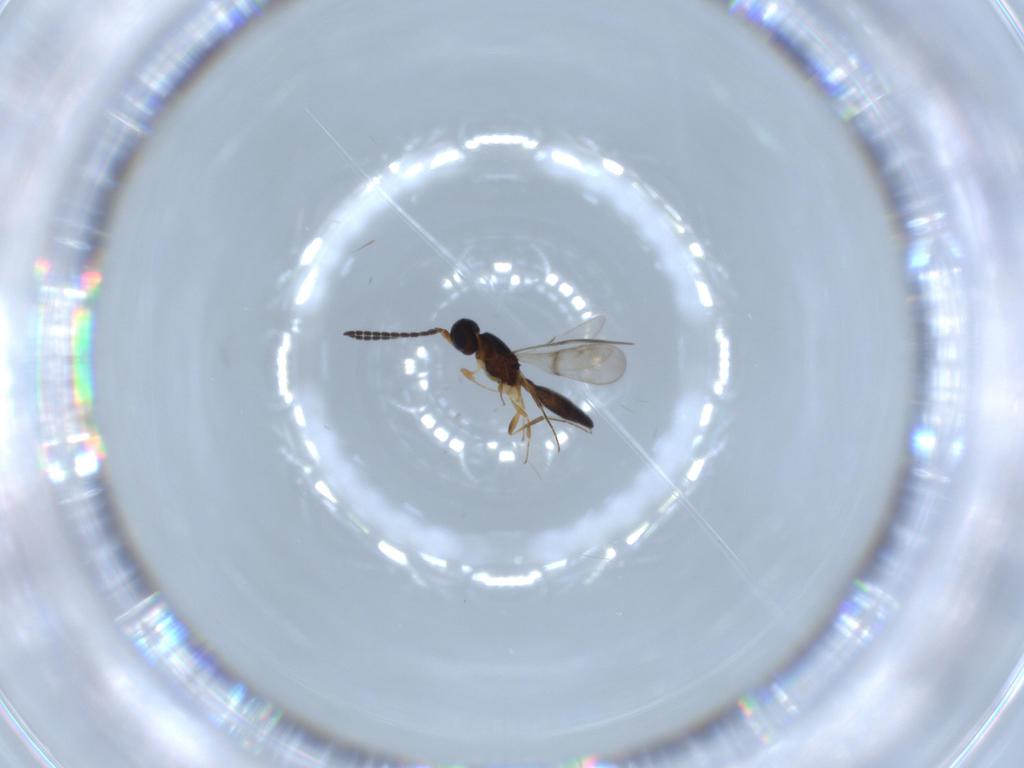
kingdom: Animalia
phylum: Arthropoda
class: Insecta
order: Hymenoptera
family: Scelionidae
